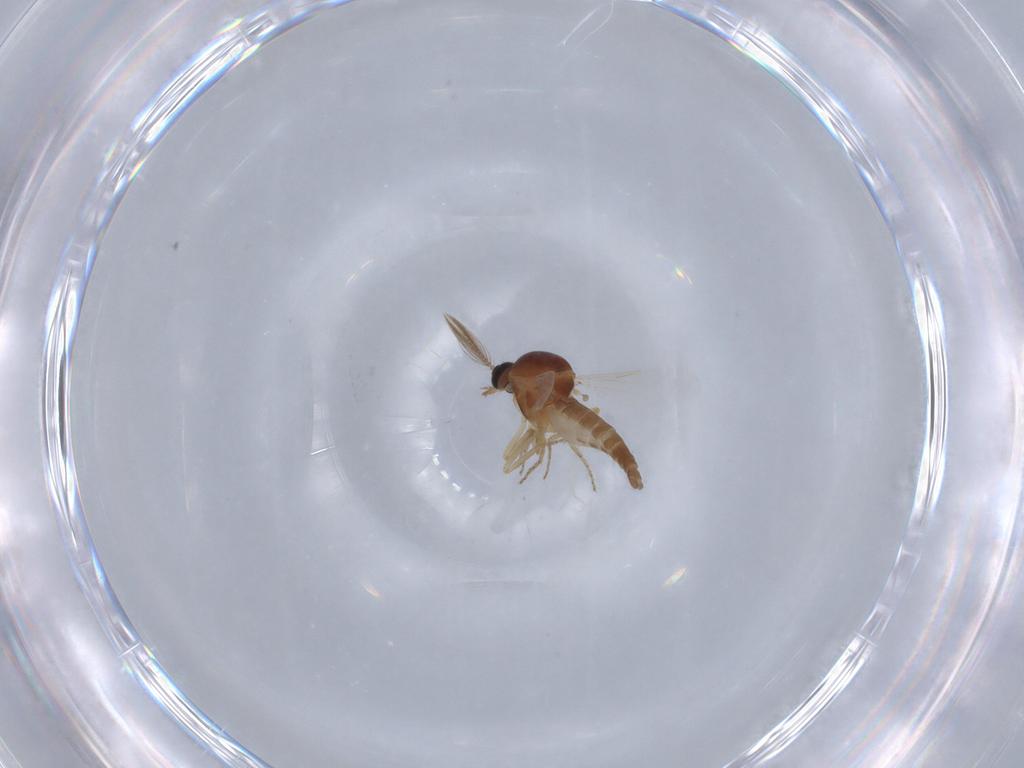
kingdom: Animalia
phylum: Arthropoda
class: Insecta
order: Diptera
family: Ceratopogonidae
